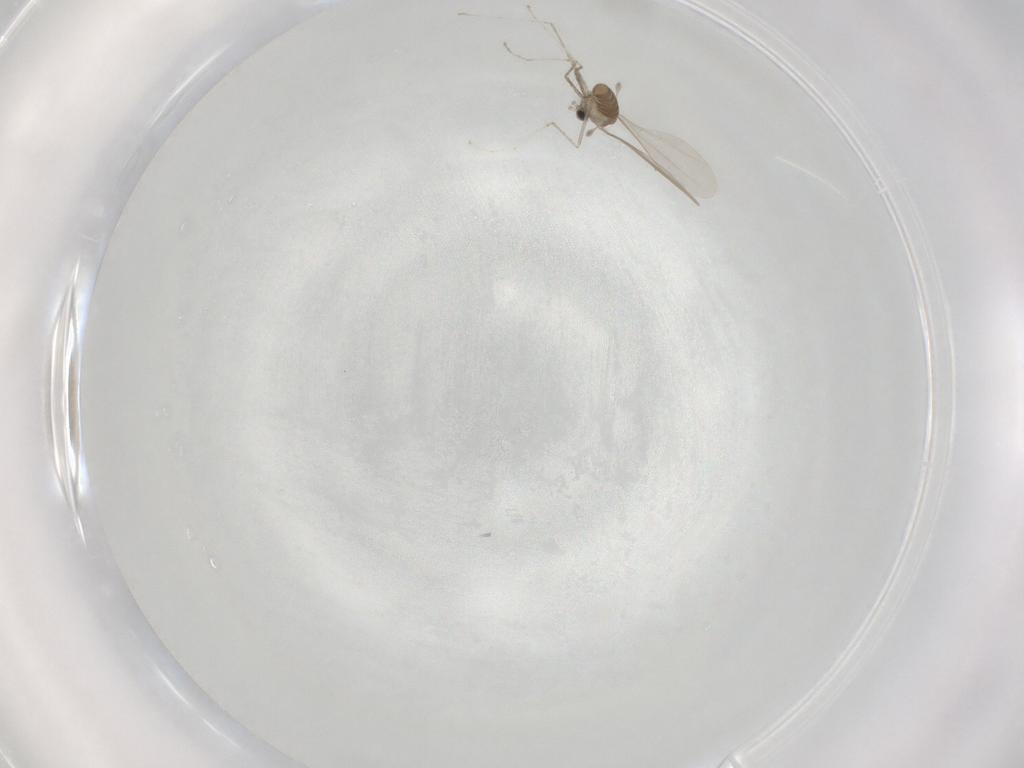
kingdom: Animalia
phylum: Arthropoda
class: Insecta
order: Diptera
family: Cecidomyiidae
